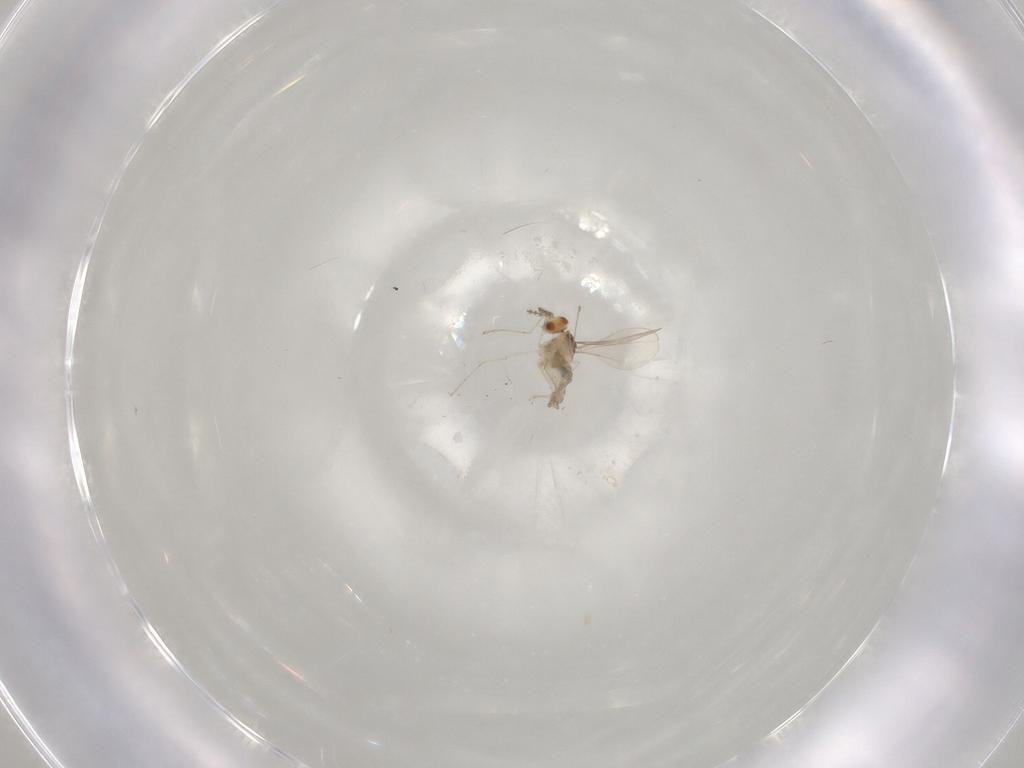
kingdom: Animalia
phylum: Arthropoda
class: Insecta
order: Diptera
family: Cecidomyiidae
